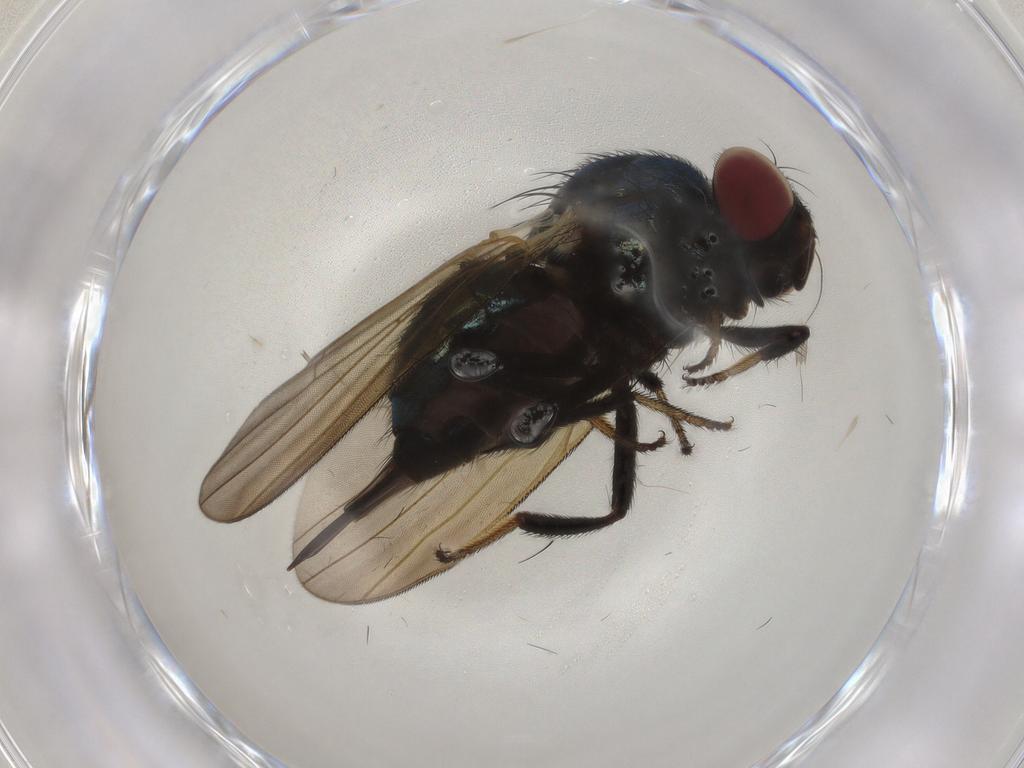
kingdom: Animalia
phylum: Arthropoda
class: Insecta
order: Diptera
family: Lonchaeidae
